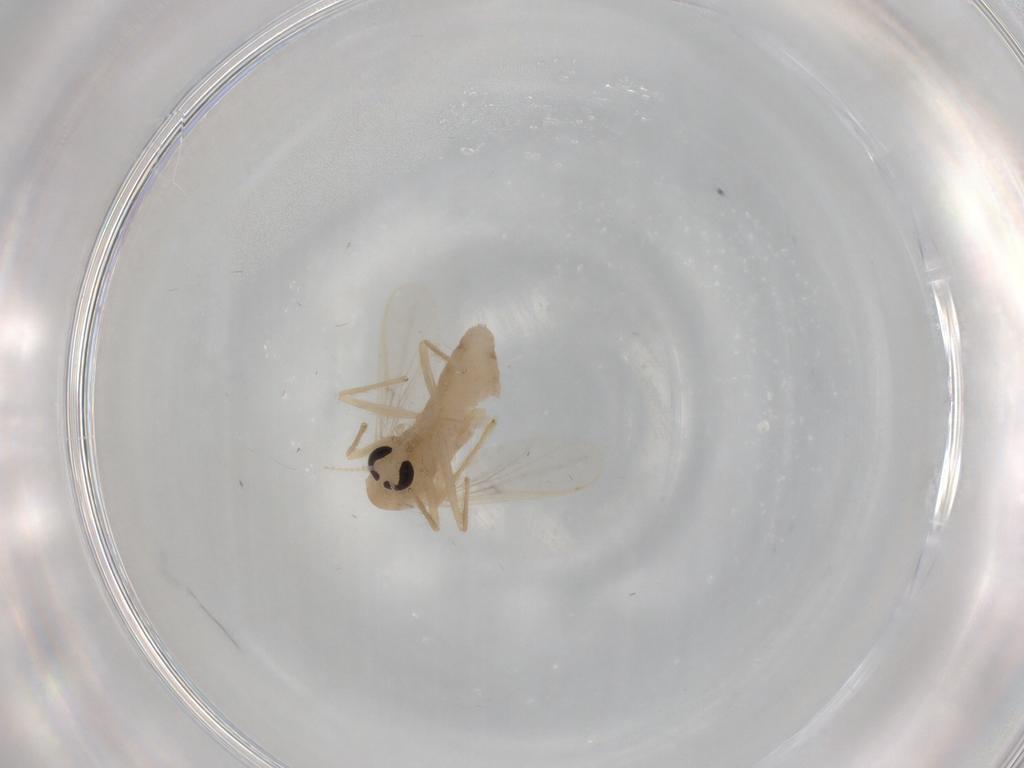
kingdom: Animalia
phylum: Arthropoda
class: Insecta
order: Diptera
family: Chironomidae
